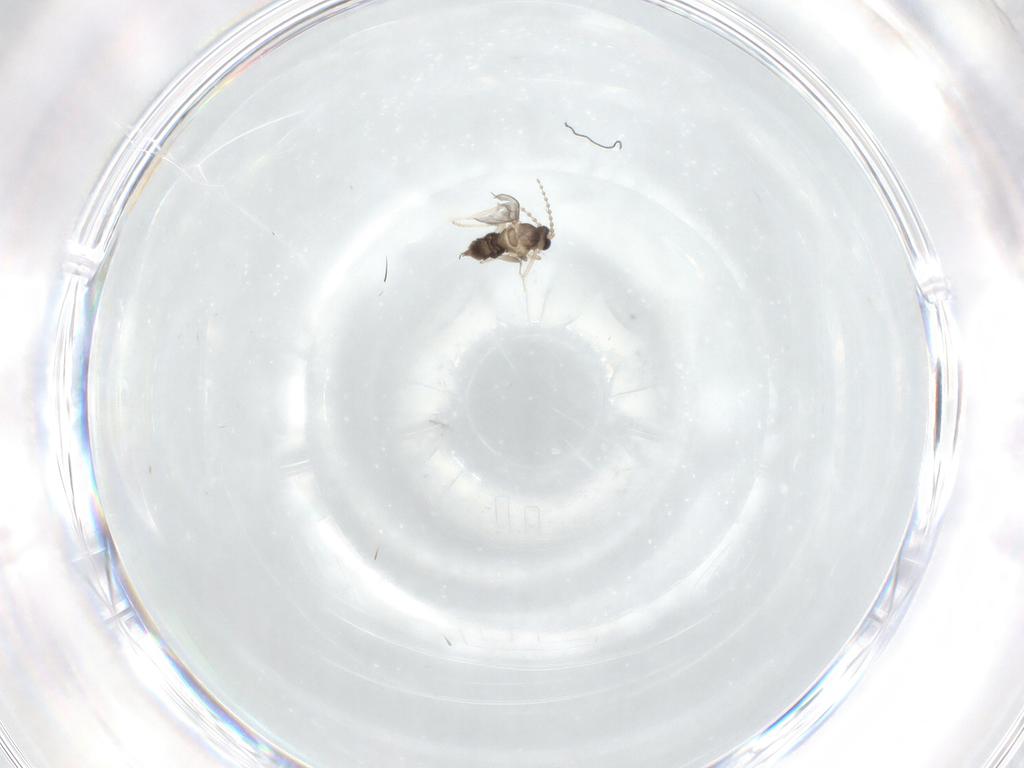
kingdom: Animalia
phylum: Arthropoda
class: Insecta
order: Diptera
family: Cecidomyiidae
